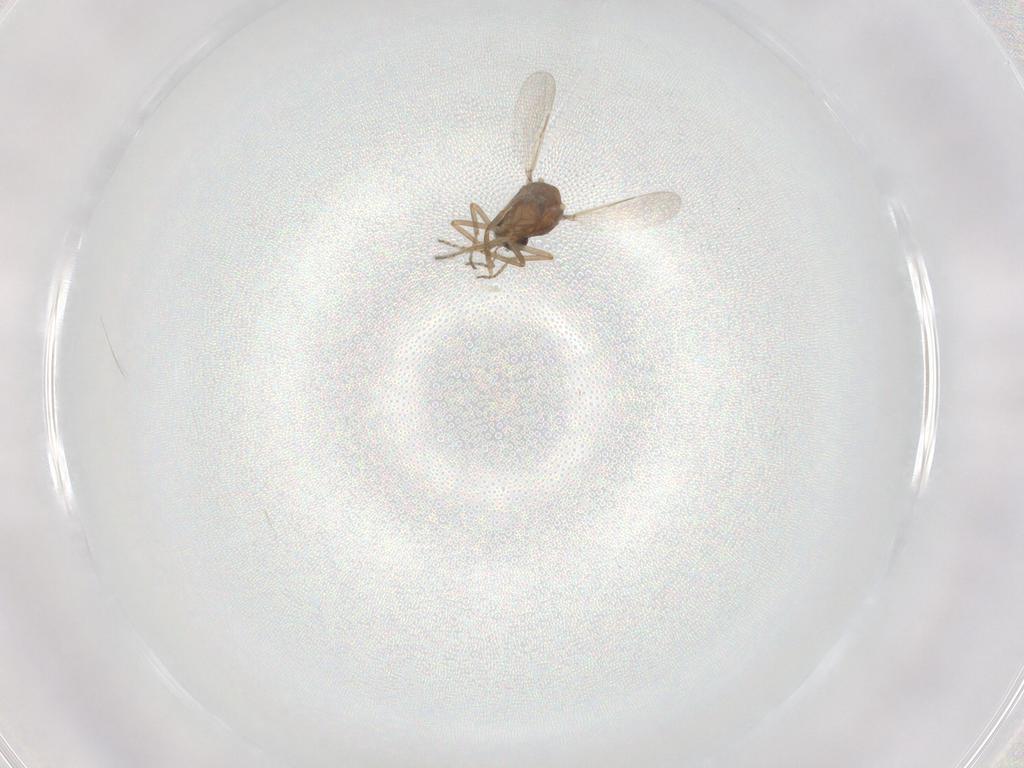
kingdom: Animalia
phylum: Arthropoda
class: Insecta
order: Diptera
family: Ceratopogonidae
